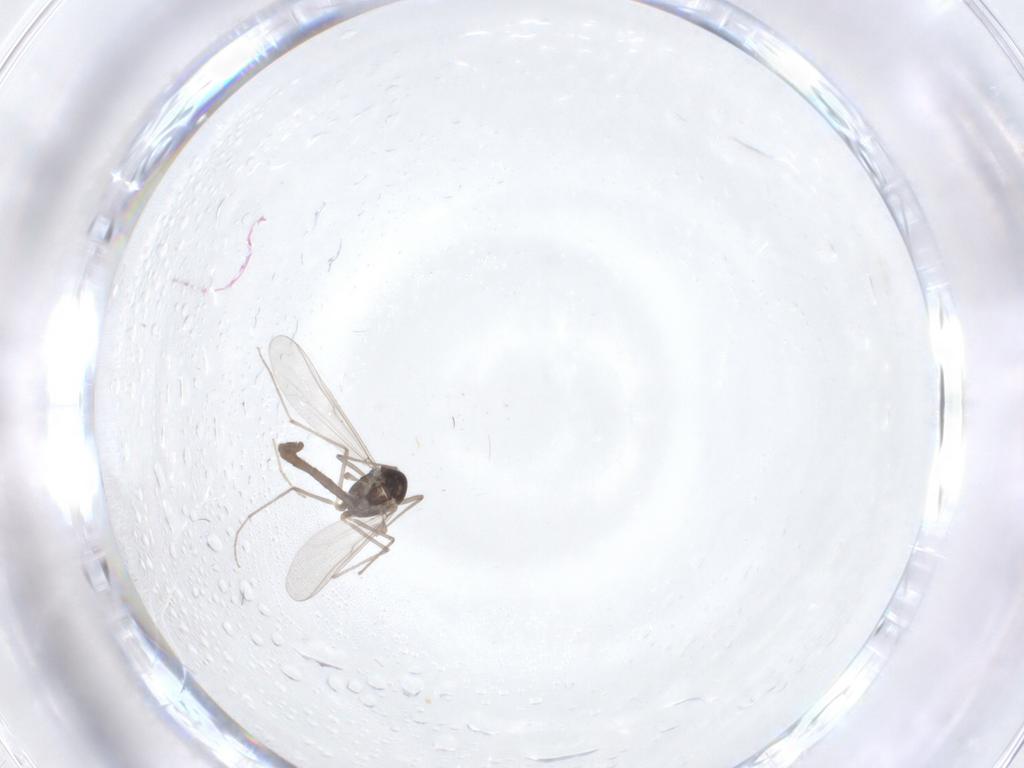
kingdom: Animalia
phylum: Arthropoda
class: Insecta
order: Diptera
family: Chironomidae
